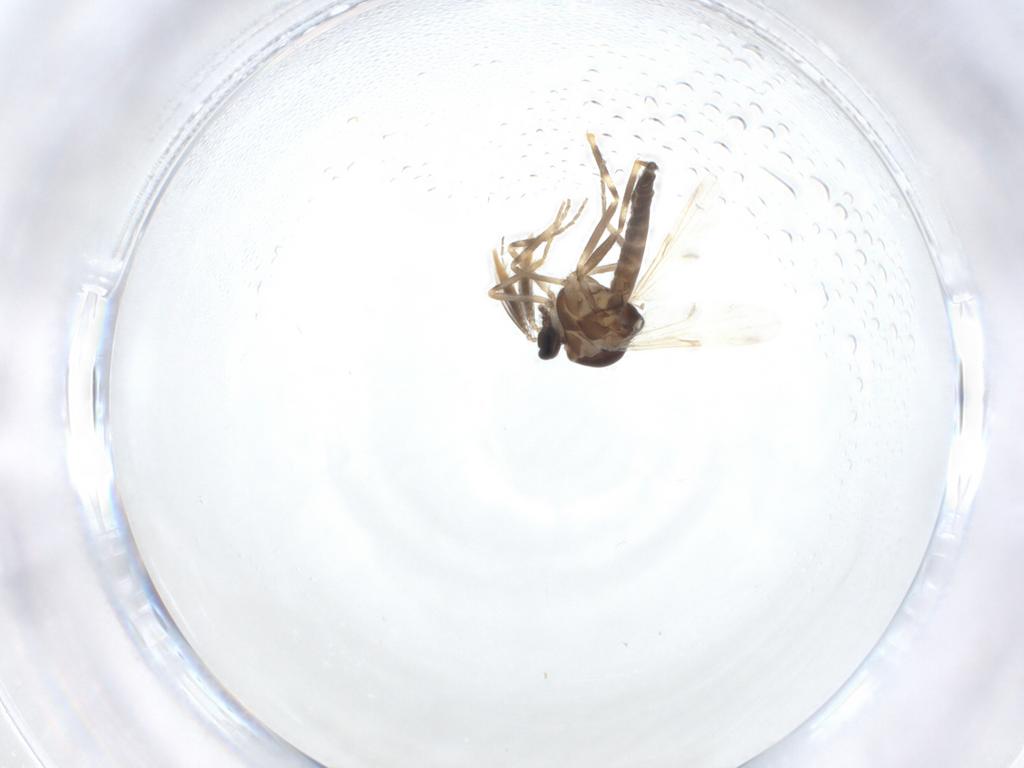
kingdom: Animalia
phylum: Arthropoda
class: Insecta
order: Diptera
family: Ceratopogonidae
